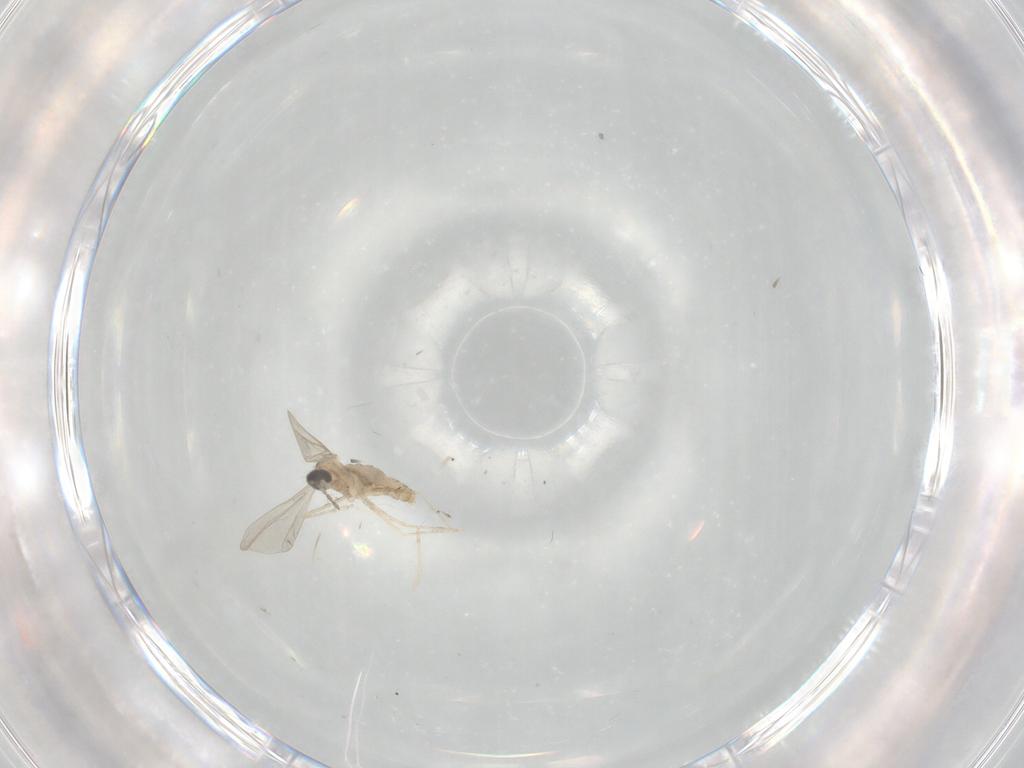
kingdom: Animalia
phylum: Arthropoda
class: Insecta
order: Diptera
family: Cecidomyiidae
